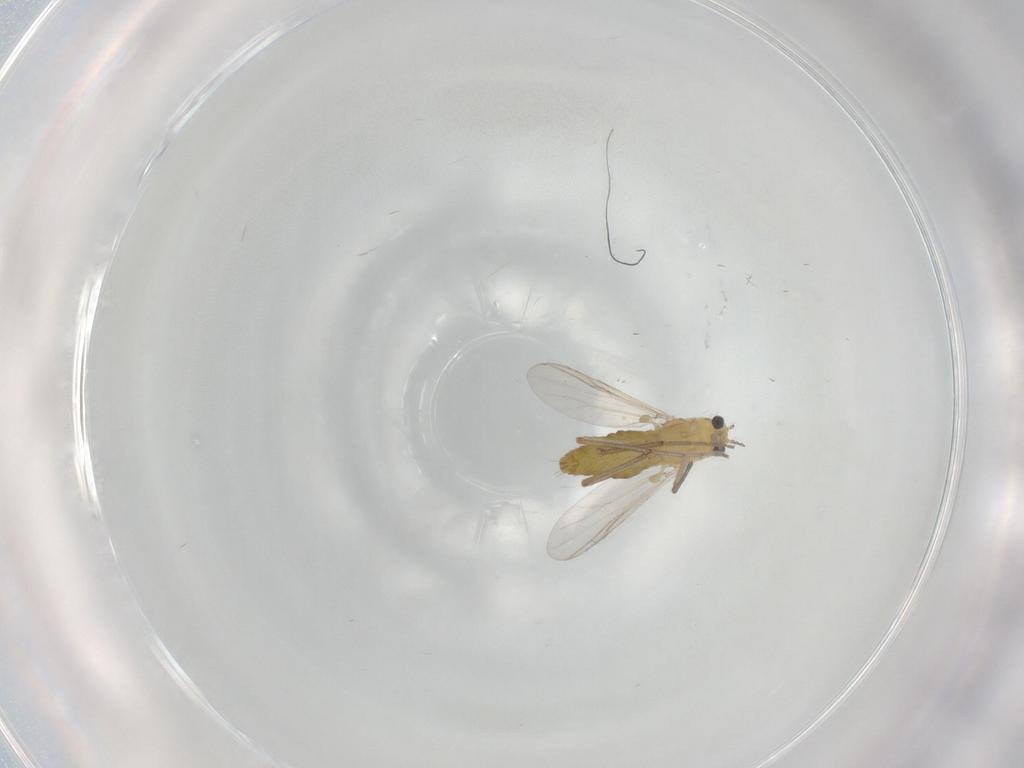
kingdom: Animalia
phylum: Arthropoda
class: Insecta
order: Diptera
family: Chironomidae
